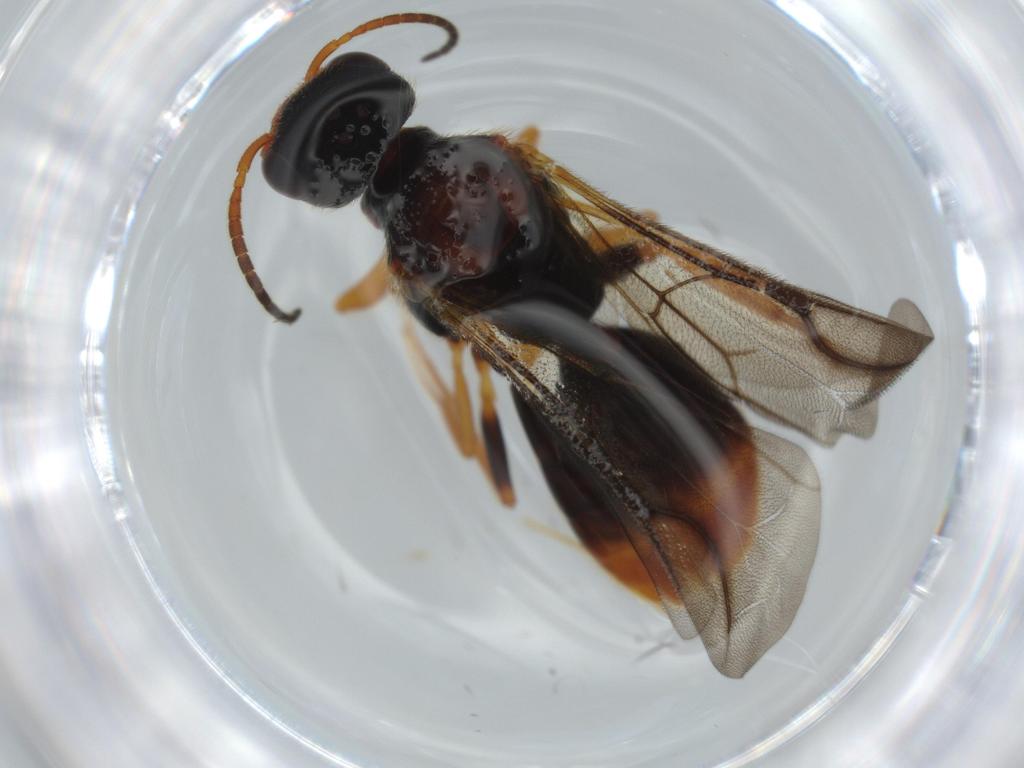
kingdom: Animalia
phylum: Arthropoda
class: Insecta
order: Hymenoptera
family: Bethylidae
